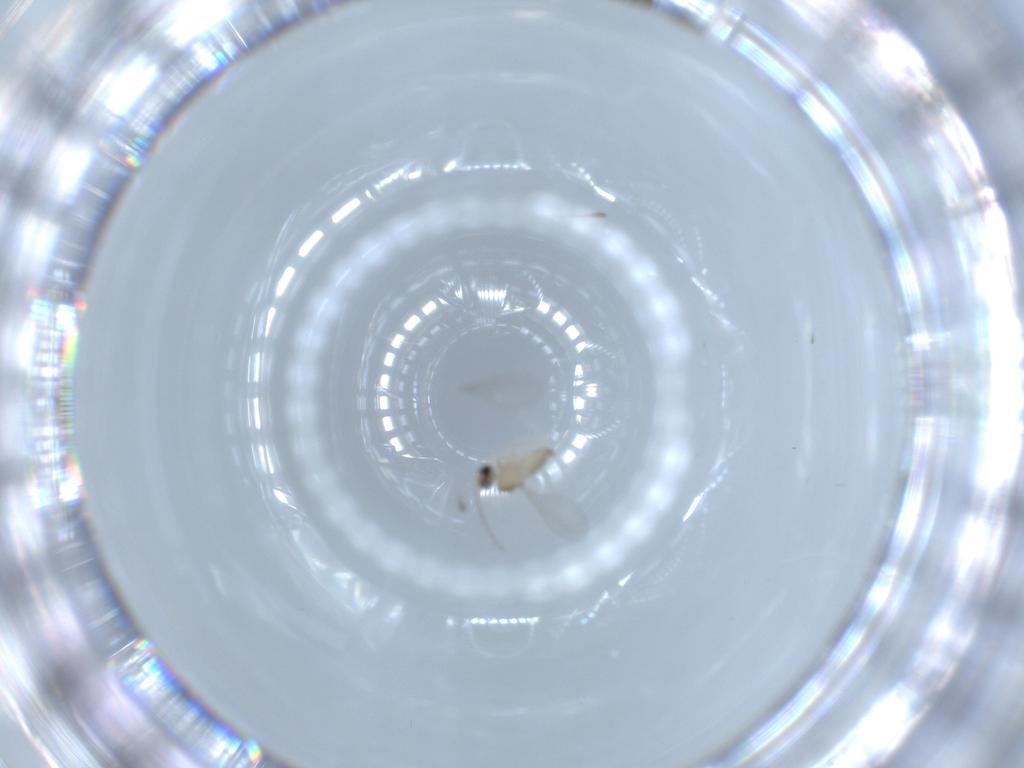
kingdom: Animalia
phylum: Arthropoda
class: Insecta
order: Diptera
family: Cecidomyiidae
